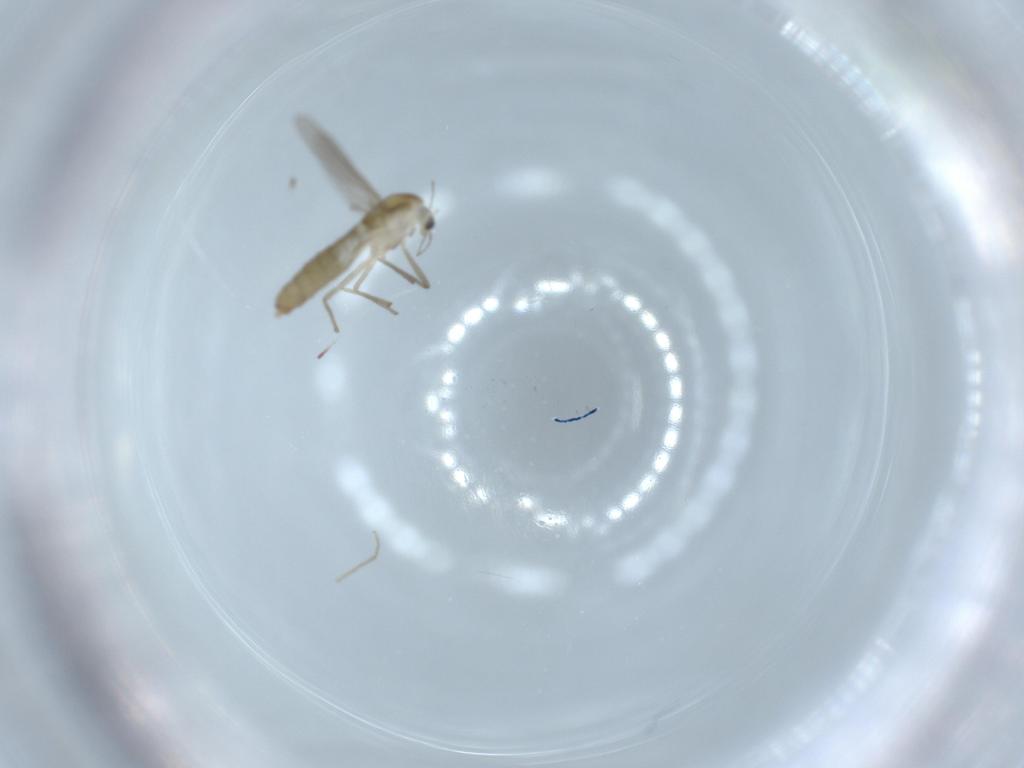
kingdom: Animalia
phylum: Arthropoda
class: Insecta
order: Diptera
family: Chironomidae
